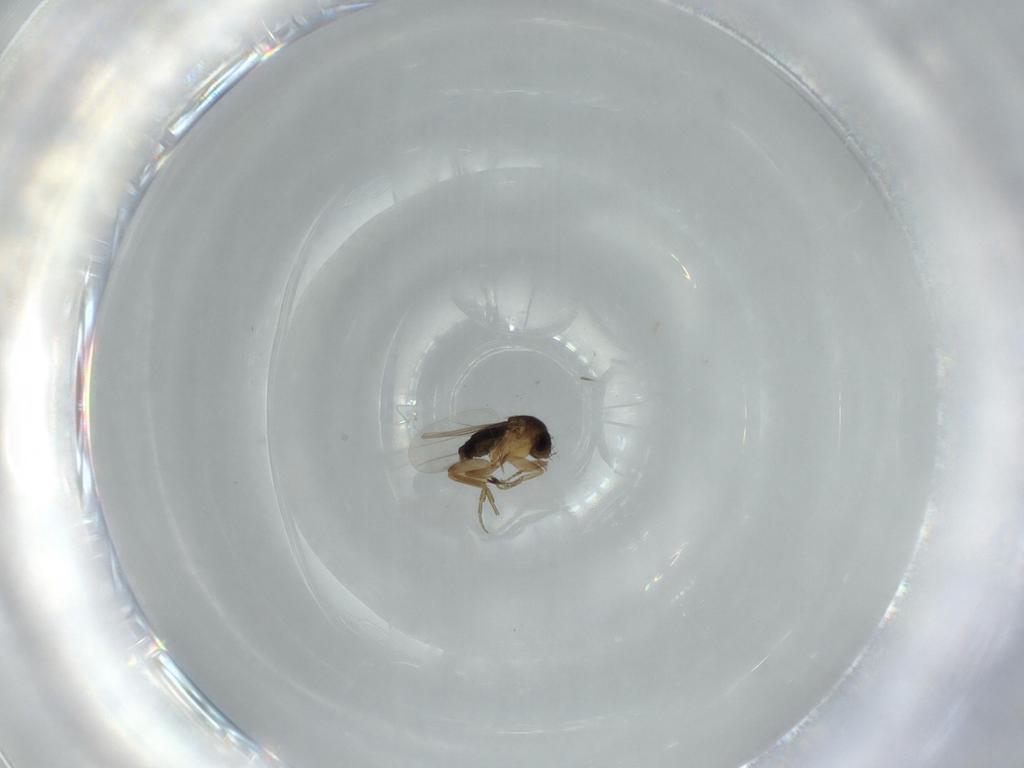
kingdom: Animalia
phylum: Arthropoda
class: Insecta
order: Diptera
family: Phoridae
